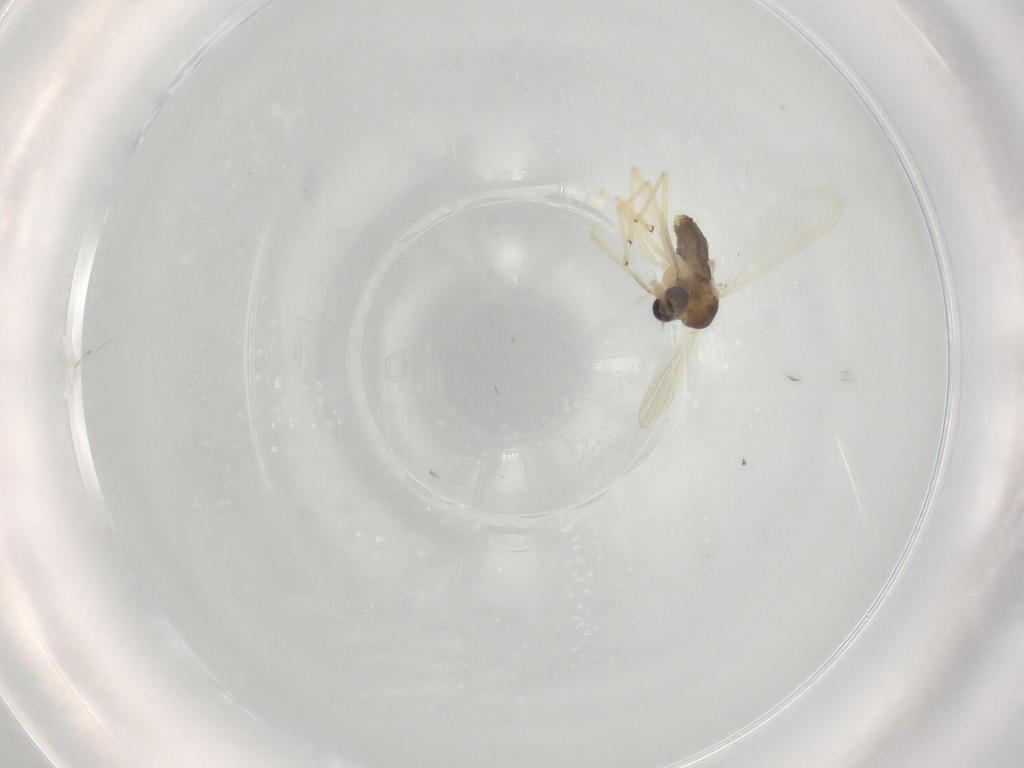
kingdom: Animalia
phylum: Arthropoda
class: Insecta
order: Diptera
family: Chironomidae
